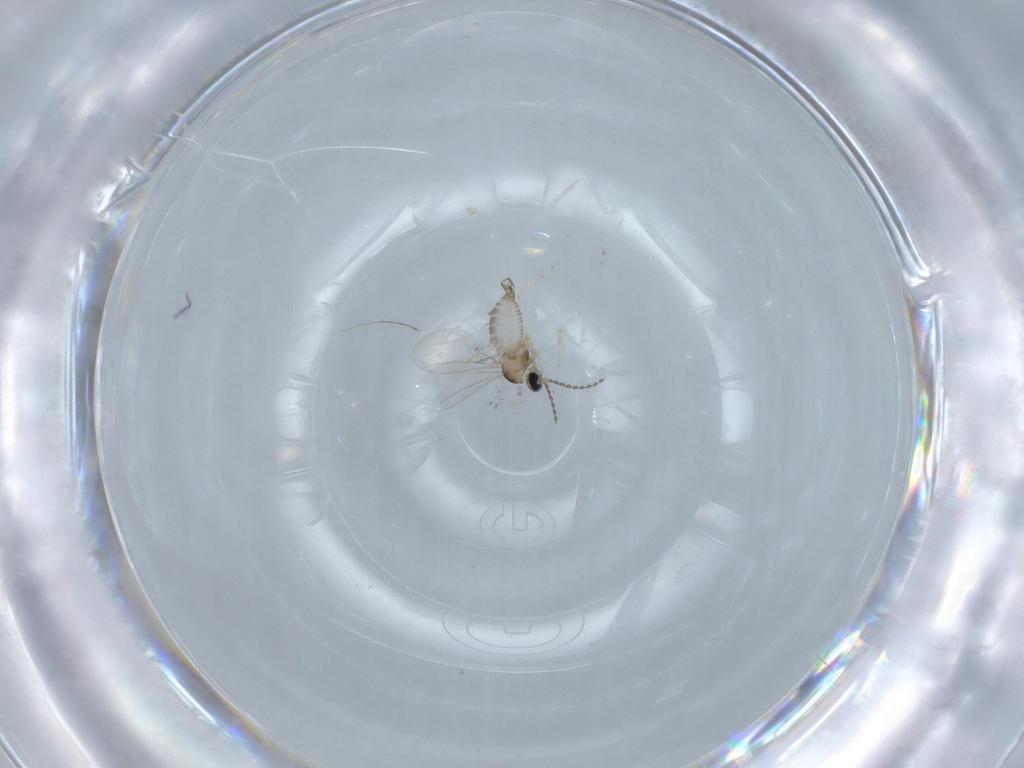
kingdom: Animalia
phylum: Arthropoda
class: Insecta
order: Diptera
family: Cecidomyiidae
